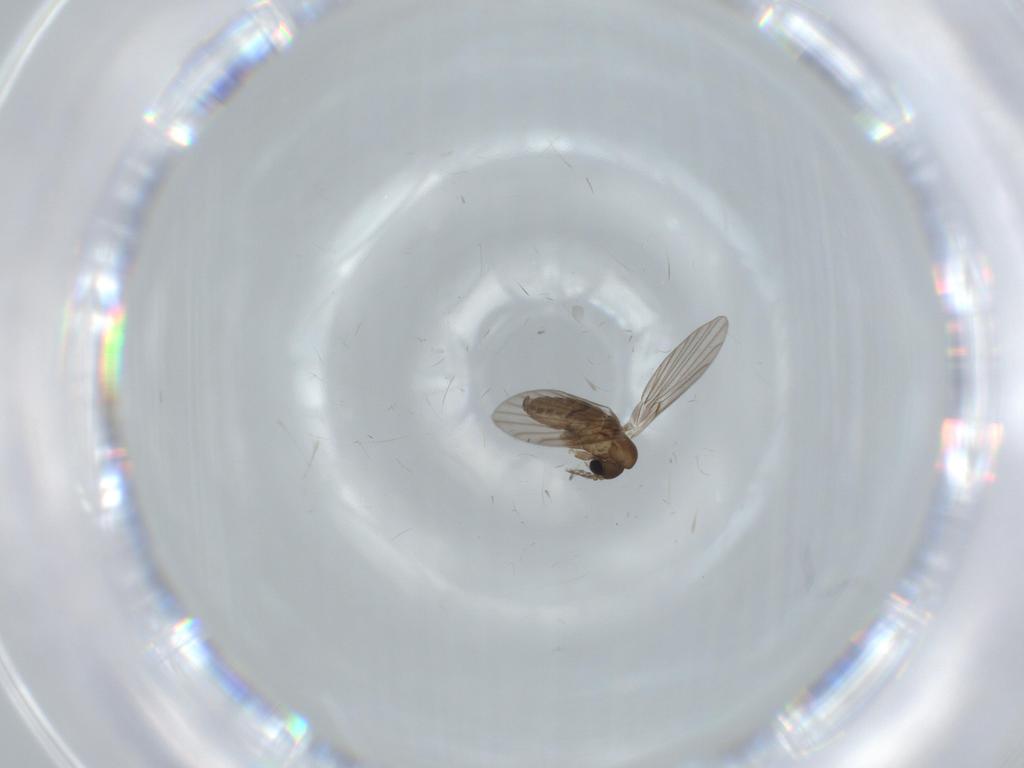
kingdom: Animalia
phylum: Arthropoda
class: Insecta
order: Diptera
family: Psychodidae
